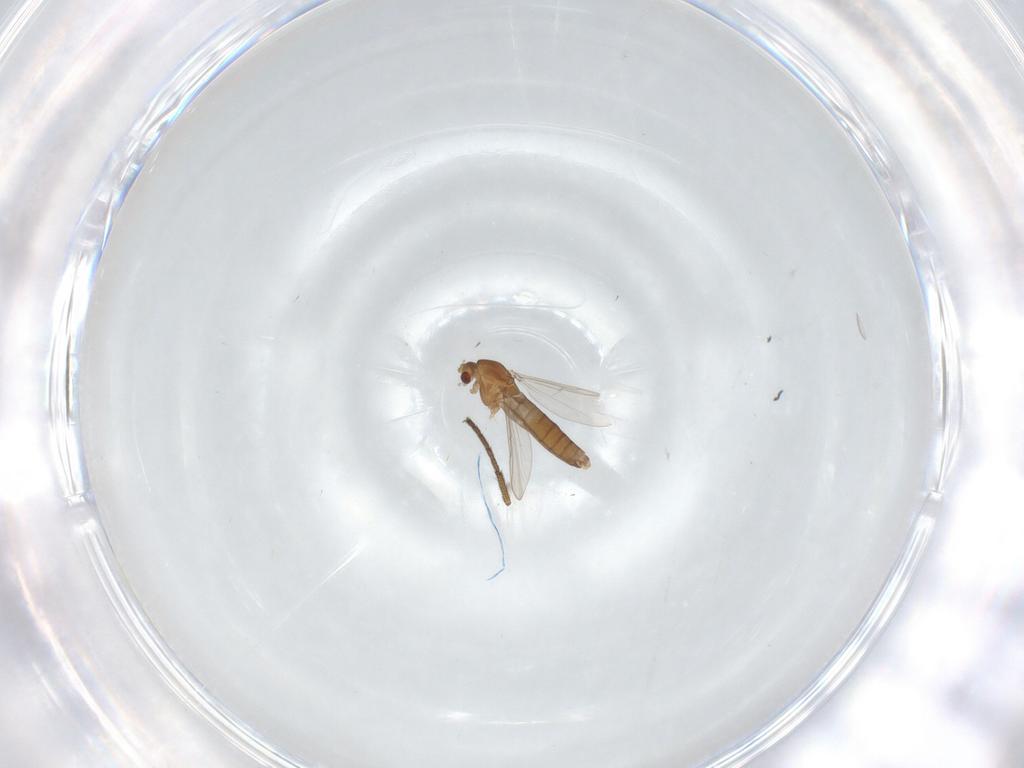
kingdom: Animalia
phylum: Arthropoda
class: Insecta
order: Diptera
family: Chironomidae
